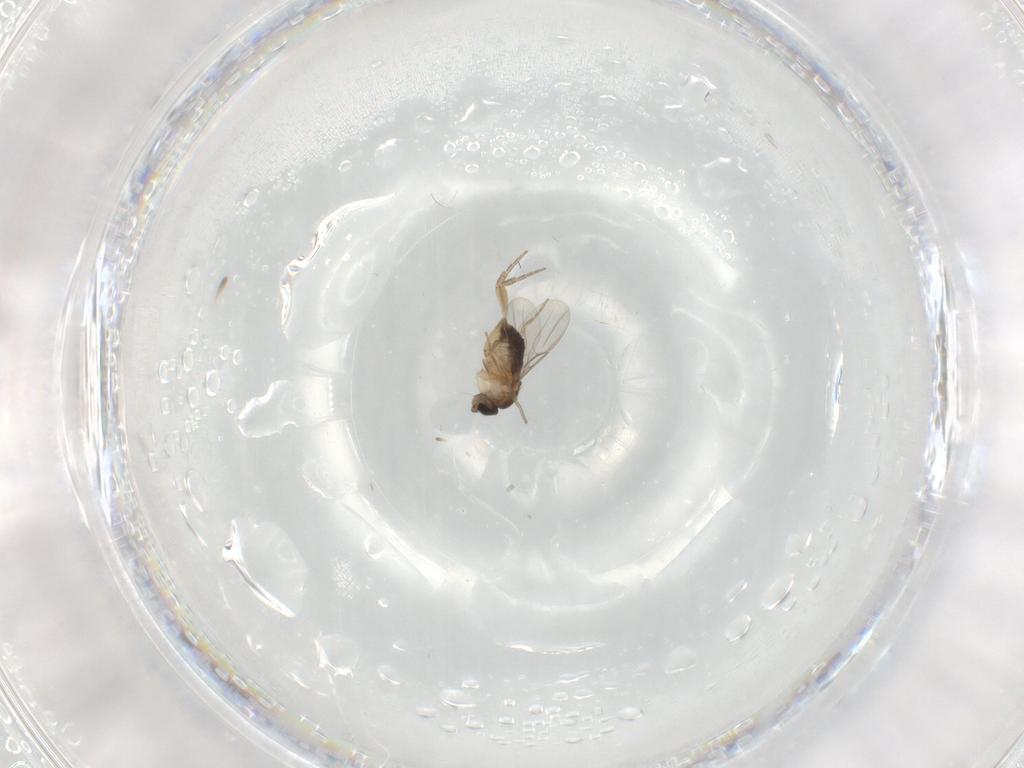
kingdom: Animalia
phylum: Arthropoda
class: Insecta
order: Diptera
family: Phoridae
